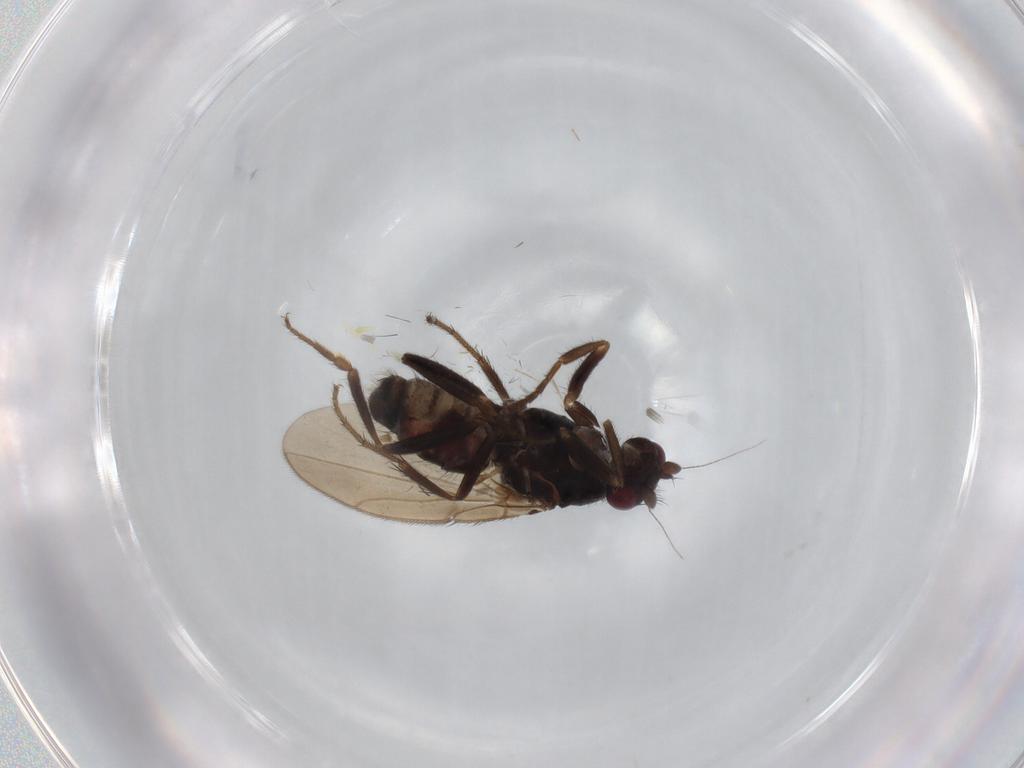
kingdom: Animalia
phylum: Arthropoda
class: Insecta
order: Diptera
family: Sphaeroceridae
